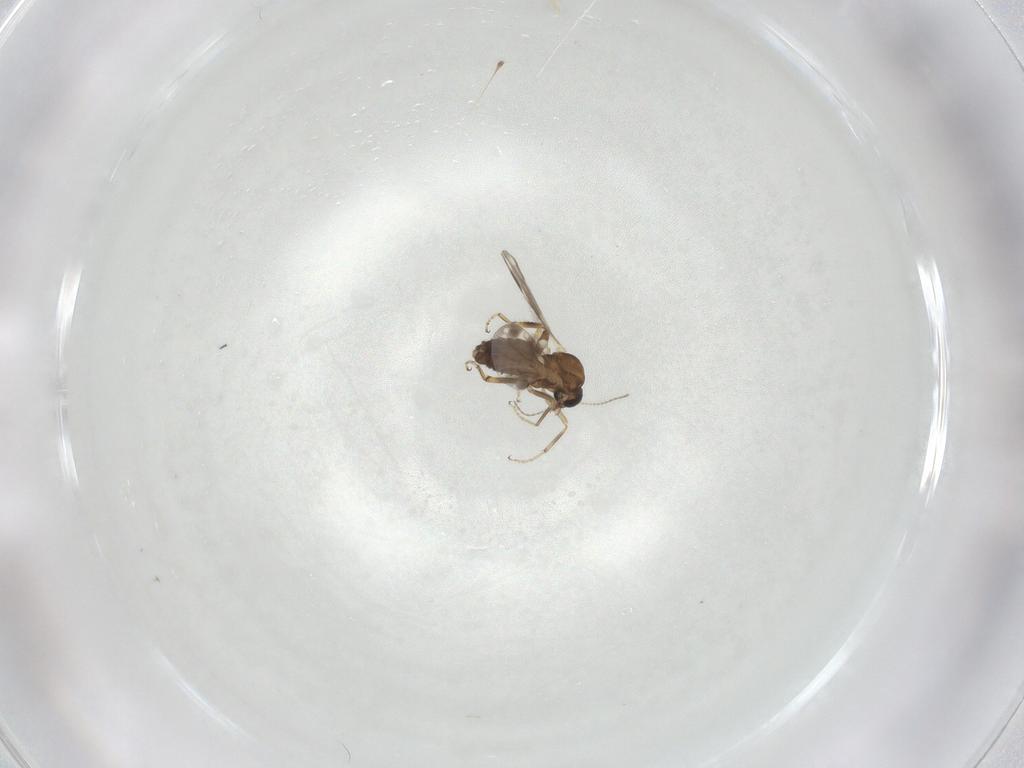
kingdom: Animalia
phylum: Arthropoda
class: Insecta
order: Diptera
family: Ceratopogonidae
